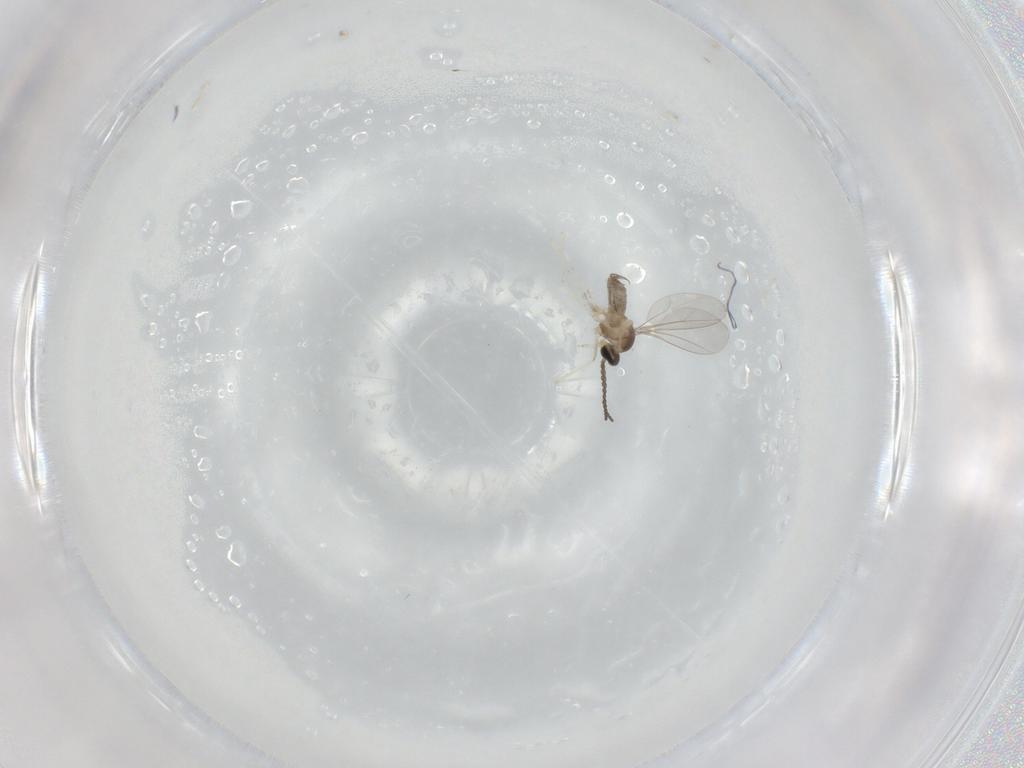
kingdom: Animalia
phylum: Arthropoda
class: Insecta
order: Diptera
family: Cecidomyiidae
